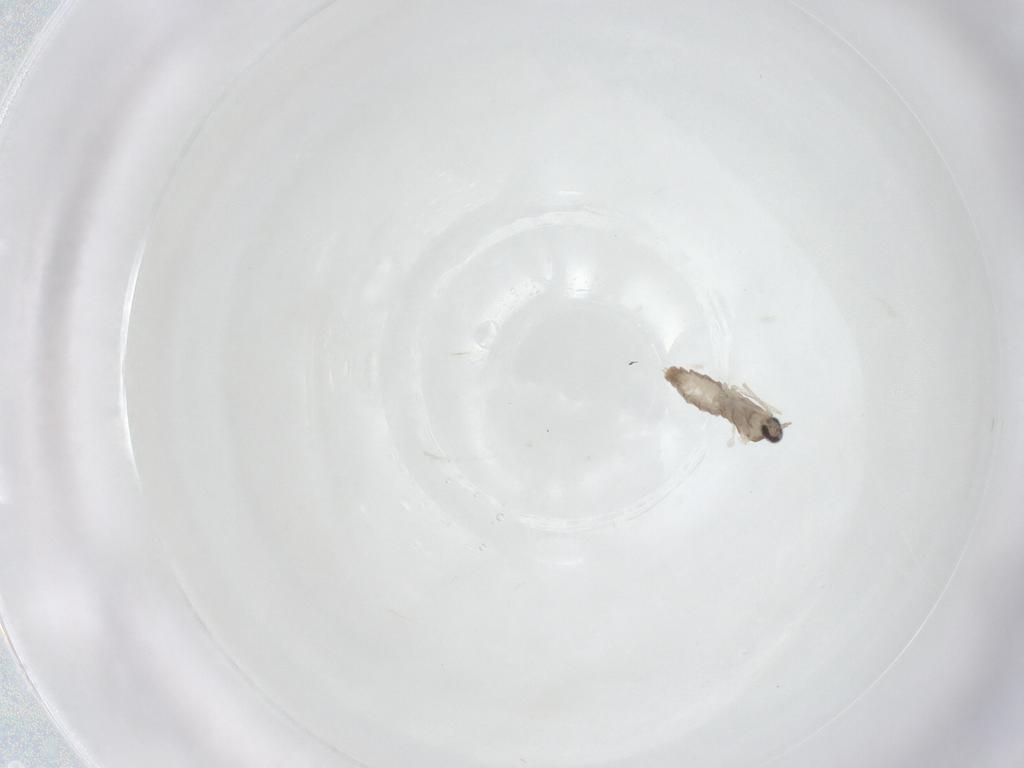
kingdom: Animalia
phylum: Arthropoda
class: Insecta
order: Diptera
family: Cecidomyiidae
